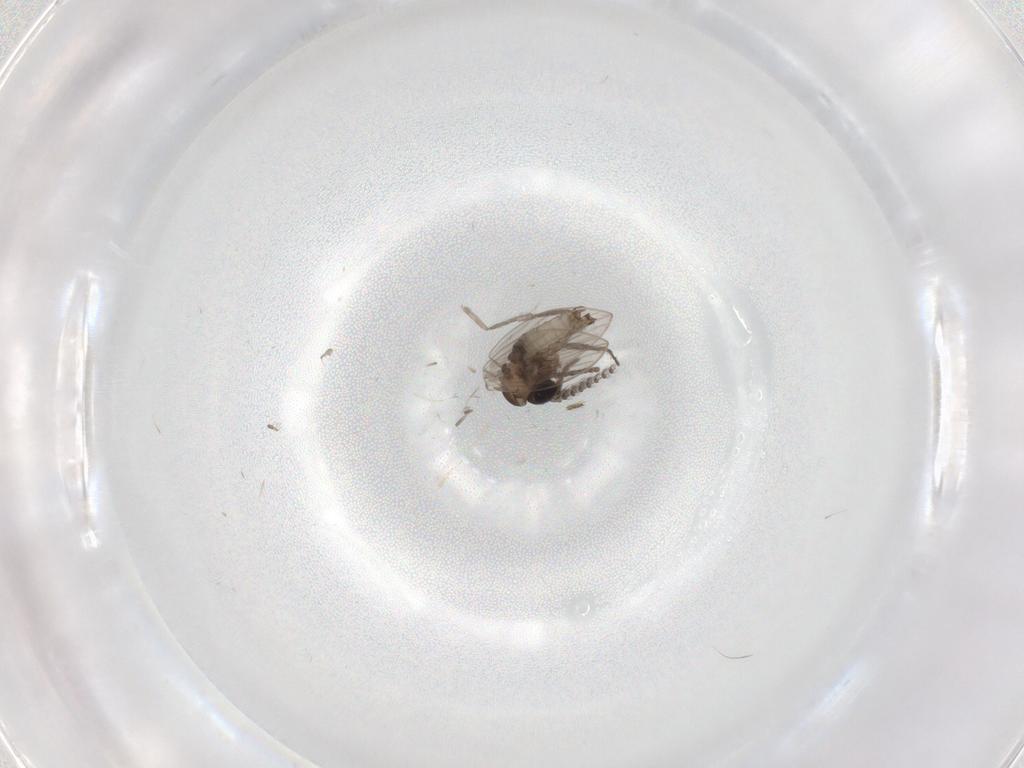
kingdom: Animalia
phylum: Arthropoda
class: Insecta
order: Diptera
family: Psychodidae
